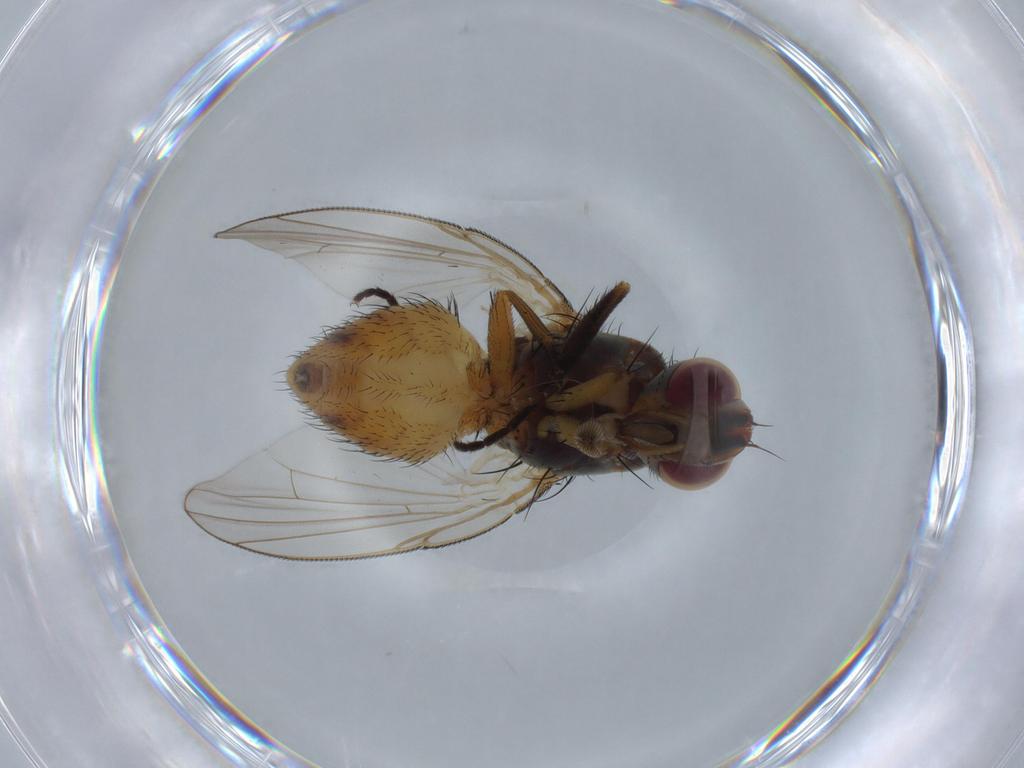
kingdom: Animalia
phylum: Arthropoda
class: Insecta
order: Diptera
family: Muscidae
